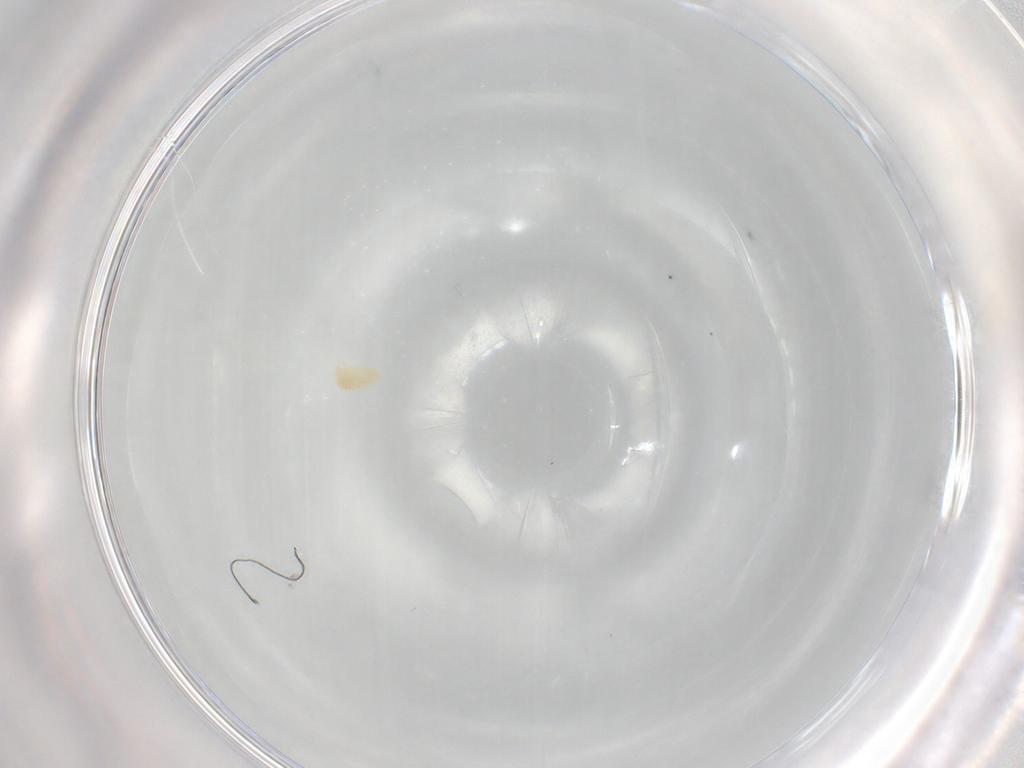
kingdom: Animalia
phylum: Arthropoda
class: Arachnida
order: Trombidiformes
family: Eupodidae
